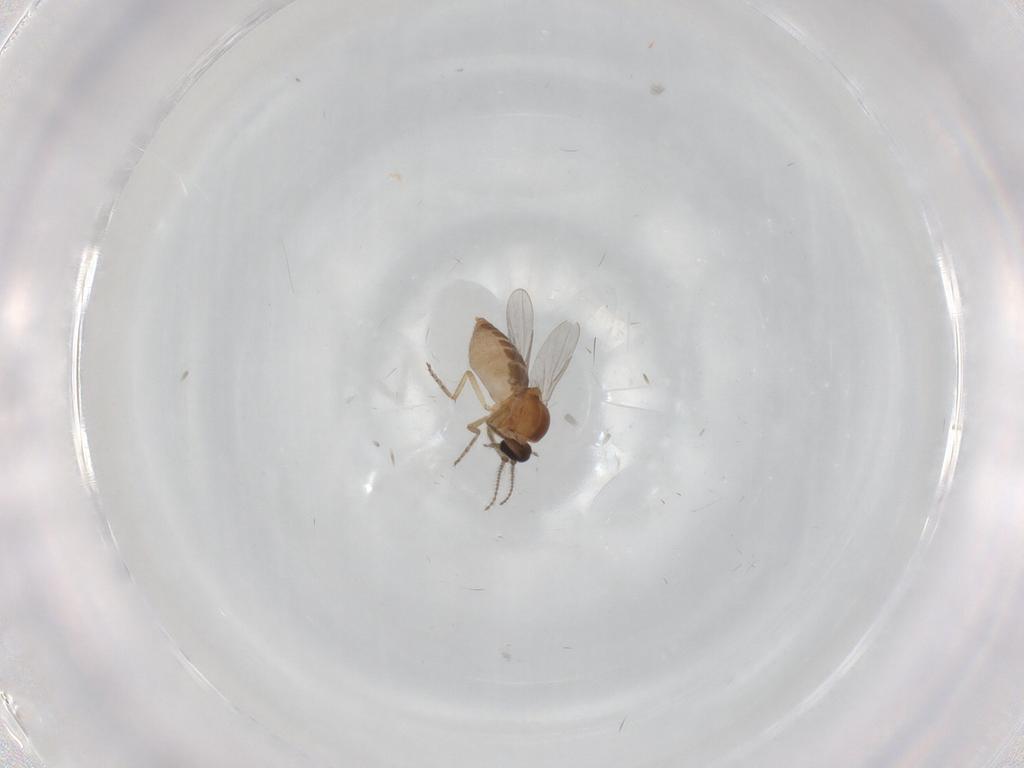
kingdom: Animalia
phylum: Arthropoda
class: Insecta
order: Diptera
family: Ceratopogonidae
